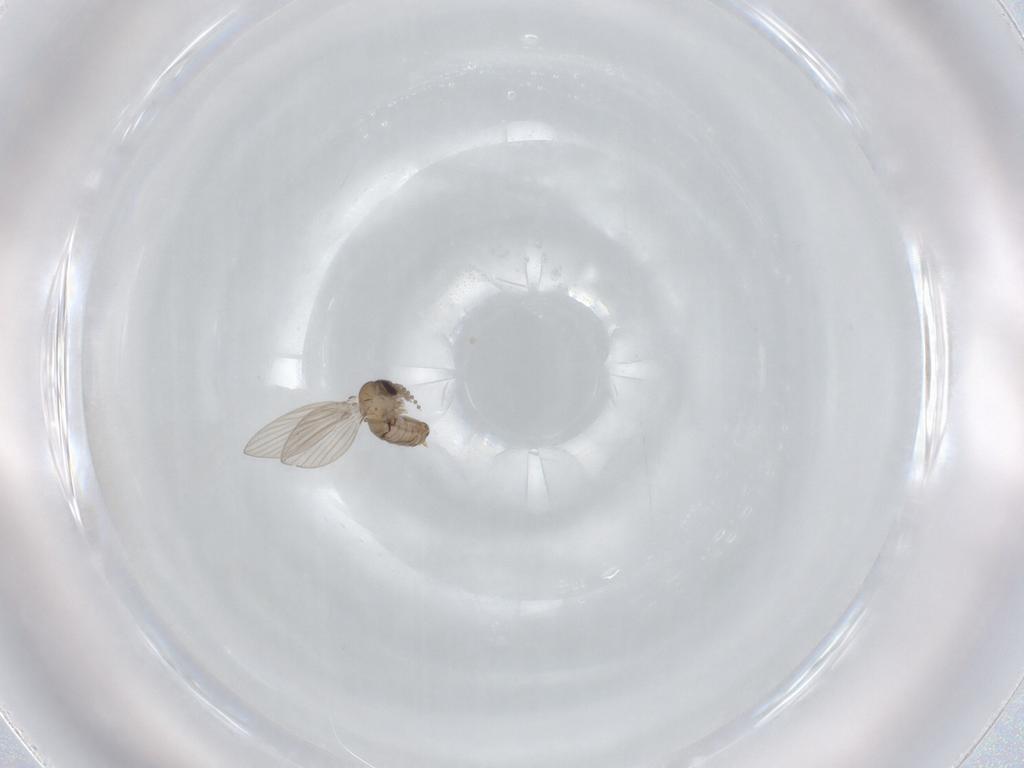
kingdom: Animalia
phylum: Arthropoda
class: Insecta
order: Diptera
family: Psychodidae
